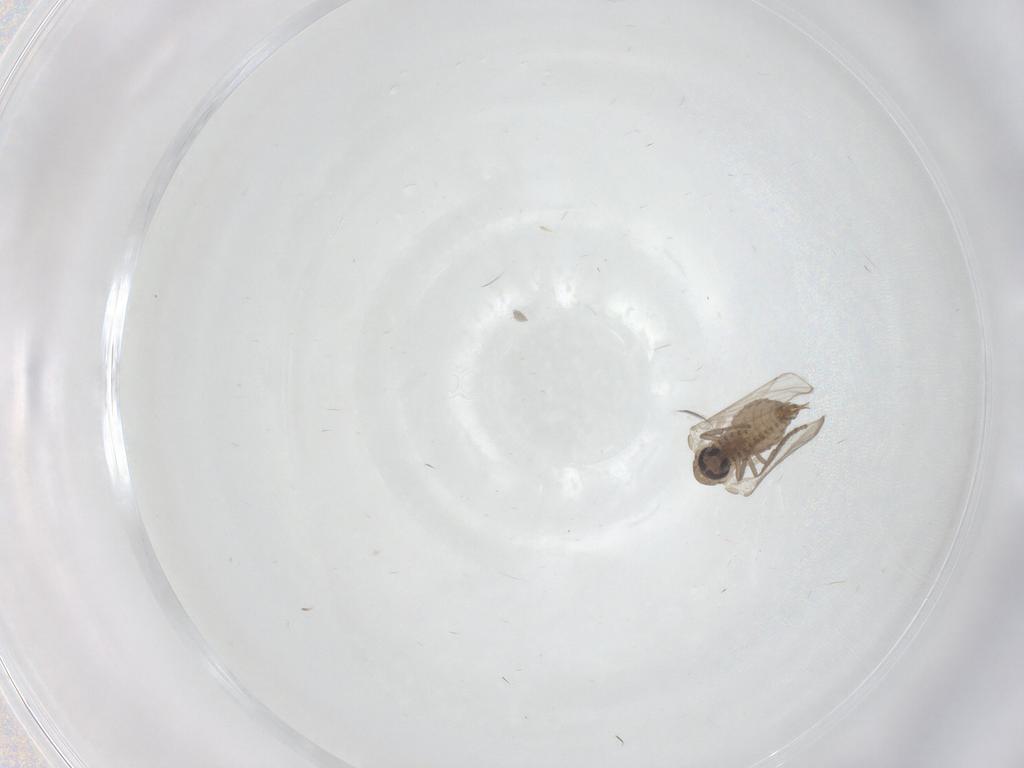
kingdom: Animalia
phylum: Arthropoda
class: Insecta
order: Diptera
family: Psychodidae
